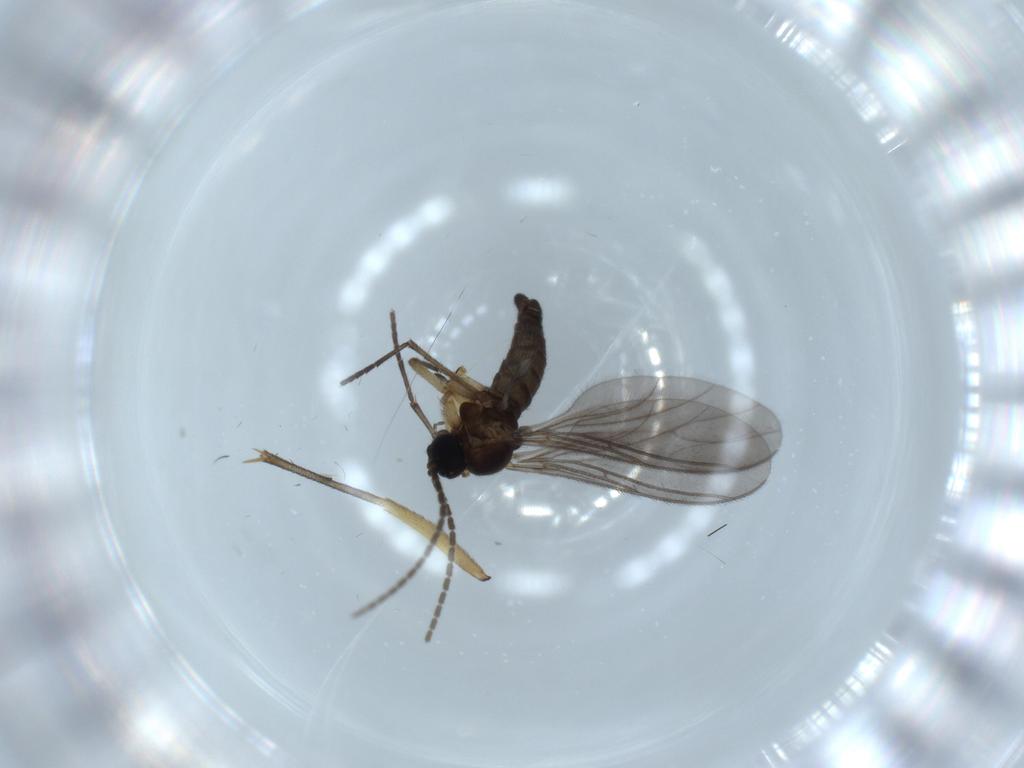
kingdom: Animalia
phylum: Arthropoda
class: Insecta
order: Diptera
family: Mycetophilidae
